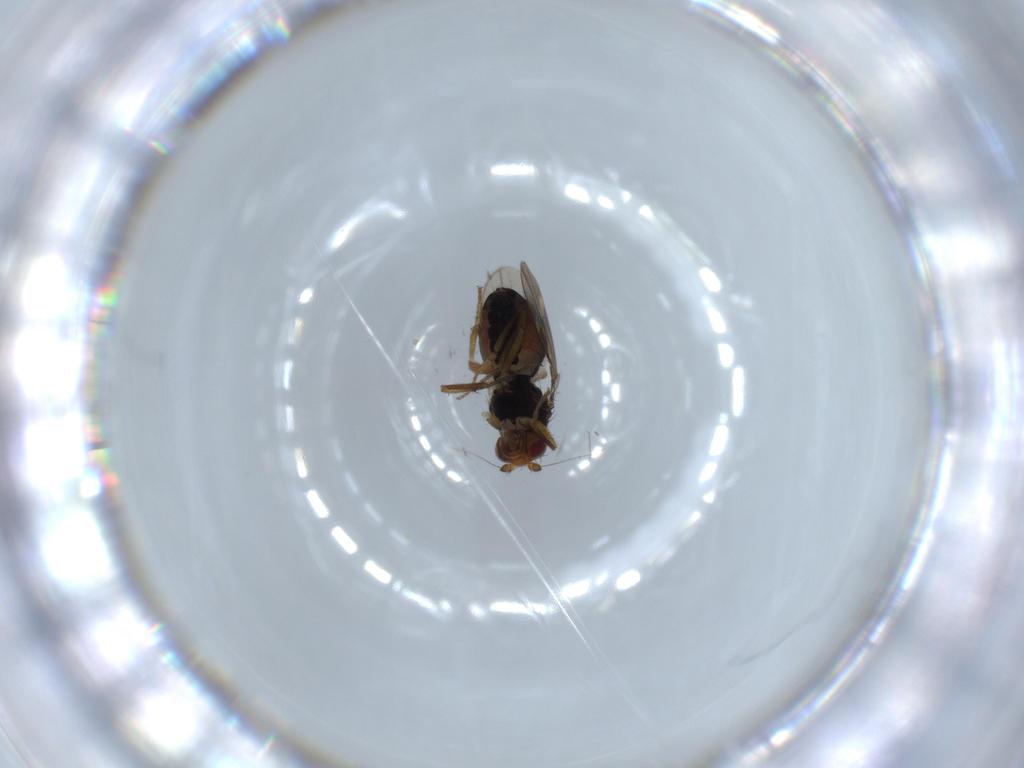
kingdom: Animalia
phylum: Arthropoda
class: Insecta
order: Diptera
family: Sphaeroceridae
